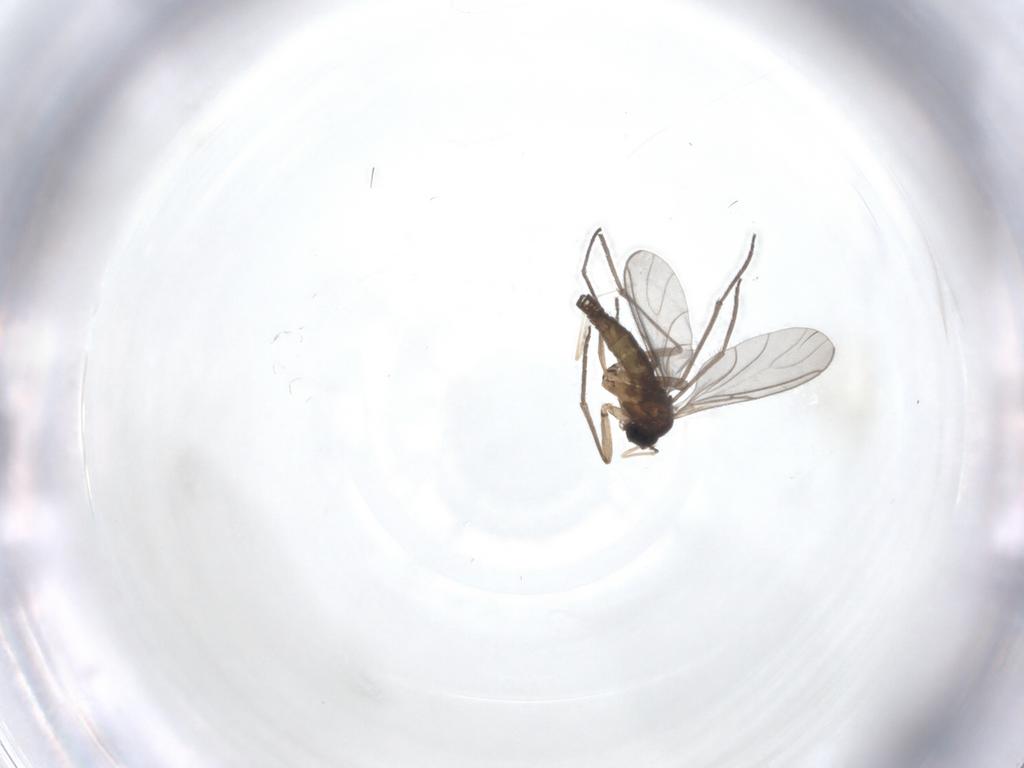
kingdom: Animalia
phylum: Arthropoda
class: Insecta
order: Diptera
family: Sciaridae
